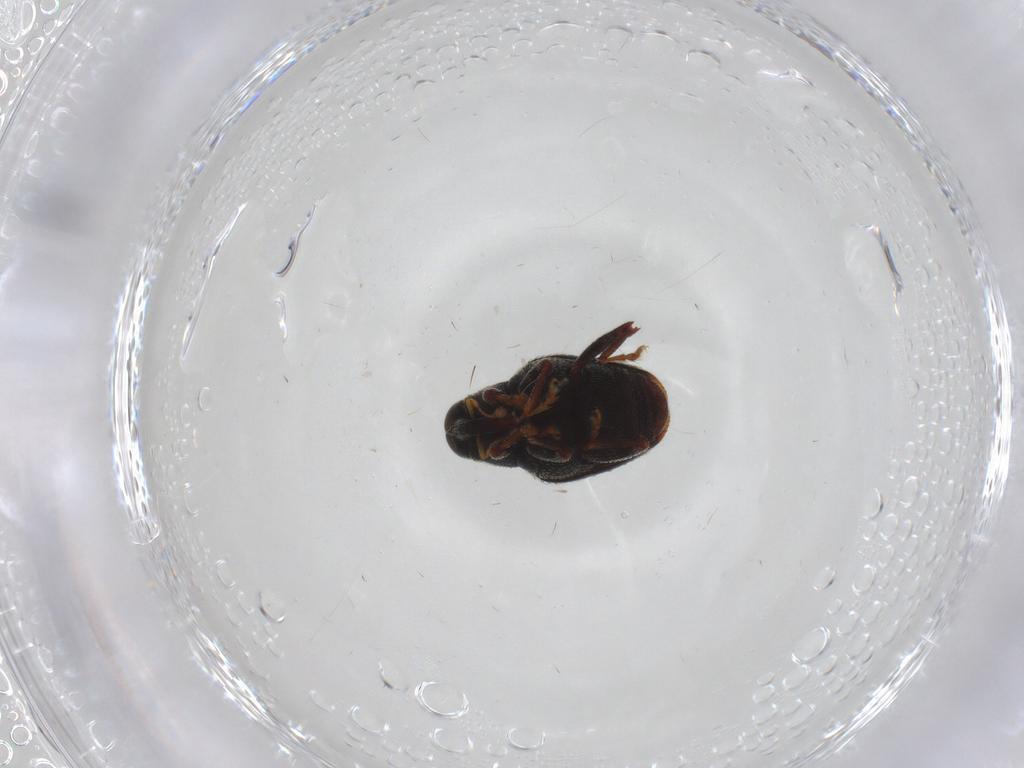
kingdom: Animalia
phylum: Arthropoda
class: Insecta
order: Coleoptera
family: Curculionidae
